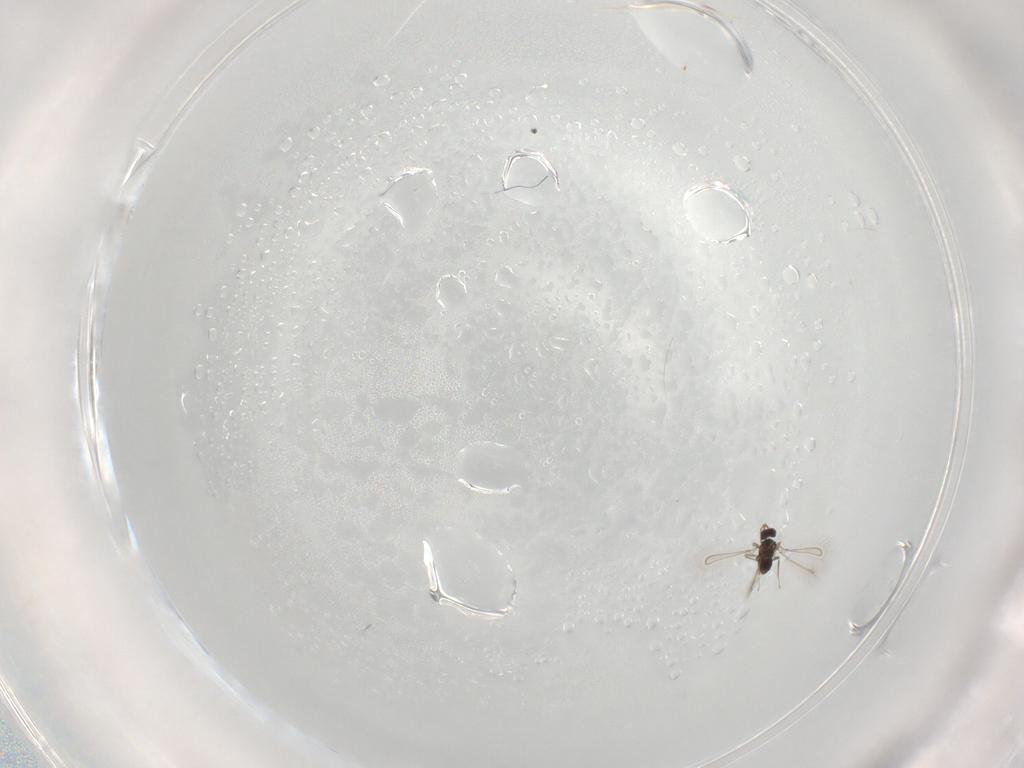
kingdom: Animalia
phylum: Arthropoda
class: Insecta
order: Hymenoptera
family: Tenthredinidae
